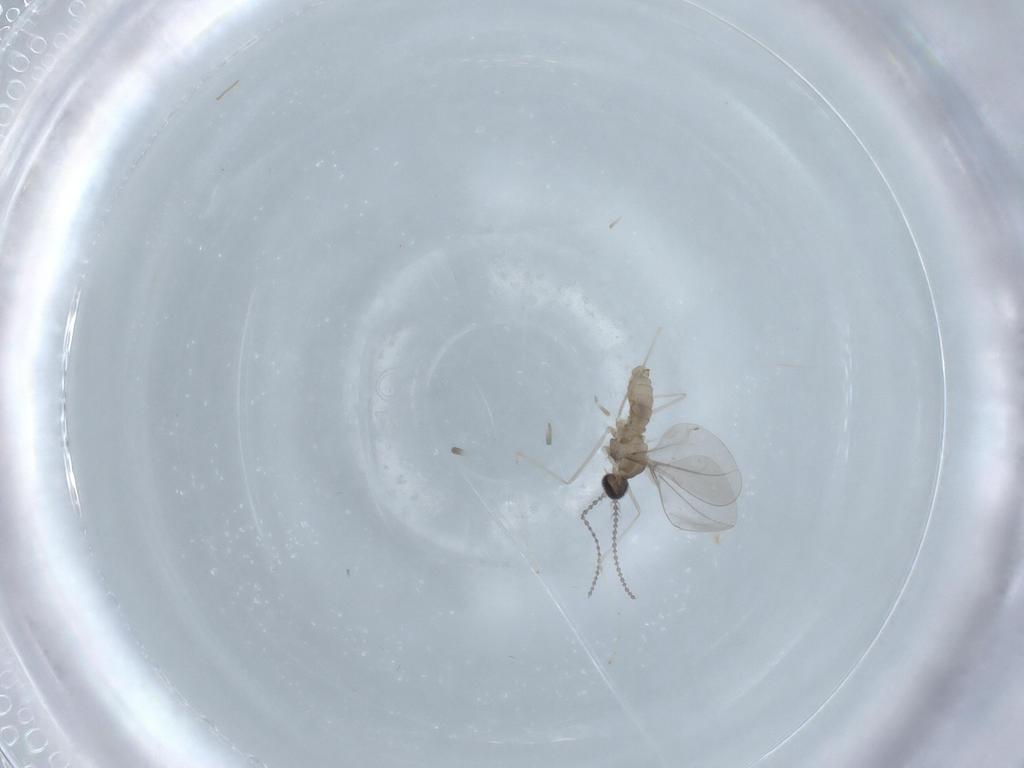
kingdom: Animalia
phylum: Arthropoda
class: Insecta
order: Diptera
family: Cecidomyiidae
